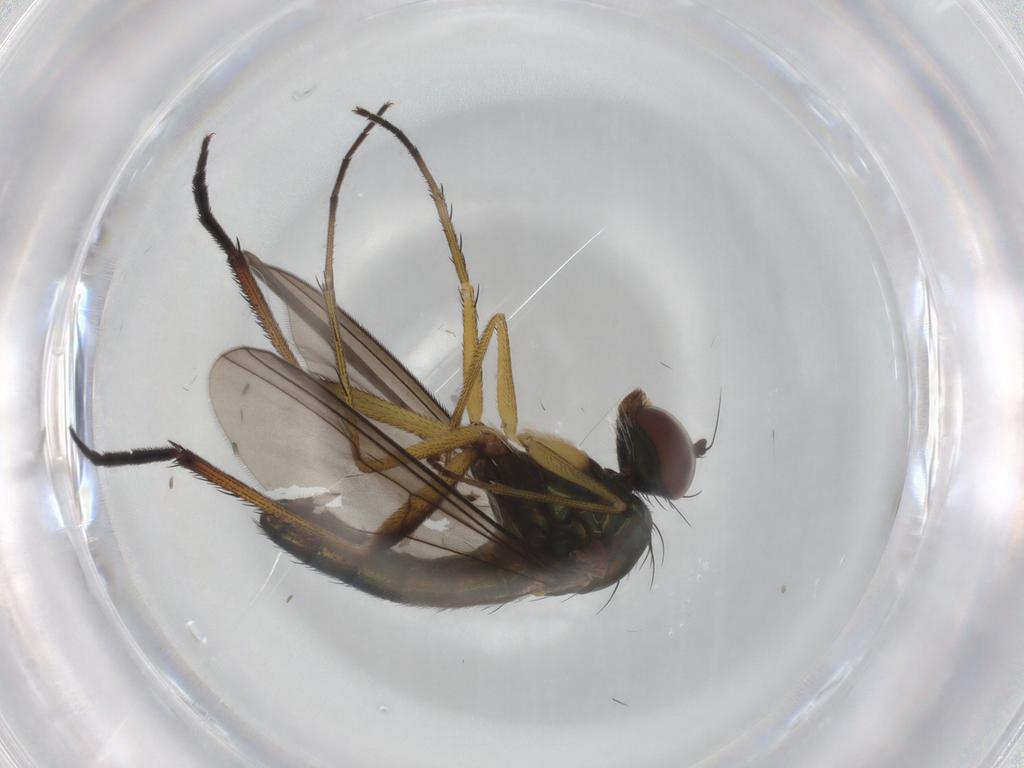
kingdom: Animalia
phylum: Arthropoda
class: Insecta
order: Diptera
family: Dolichopodidae
